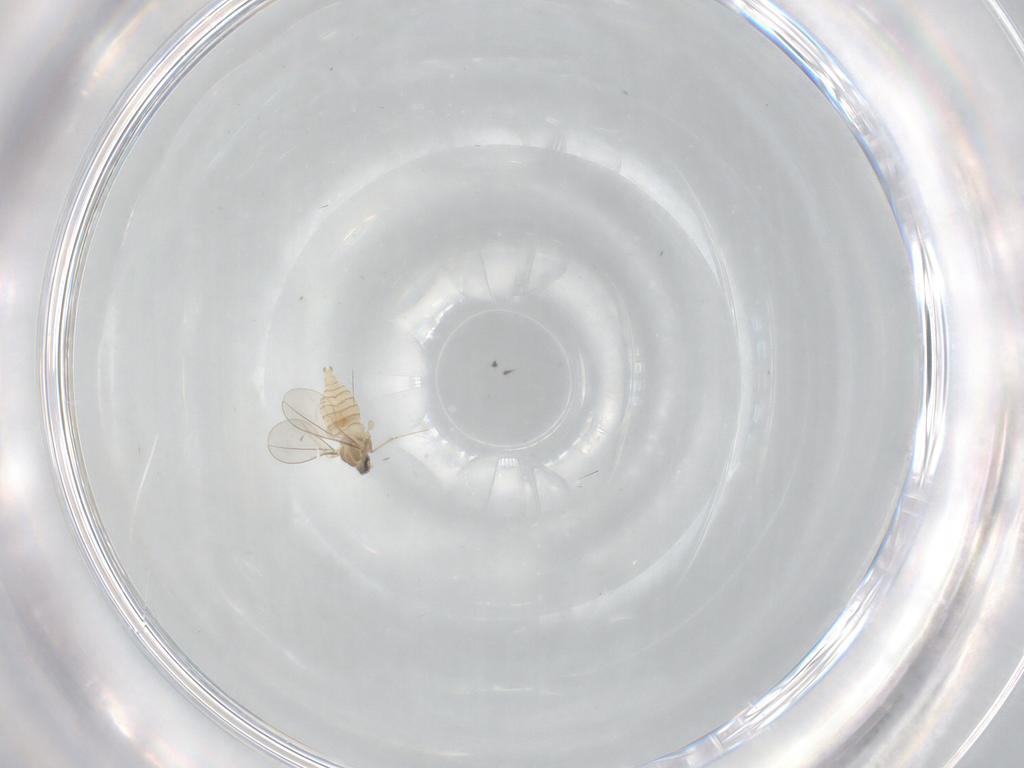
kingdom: Animalia
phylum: Arthropoda
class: Insecta
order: Diptera
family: Cecidomyiidae
